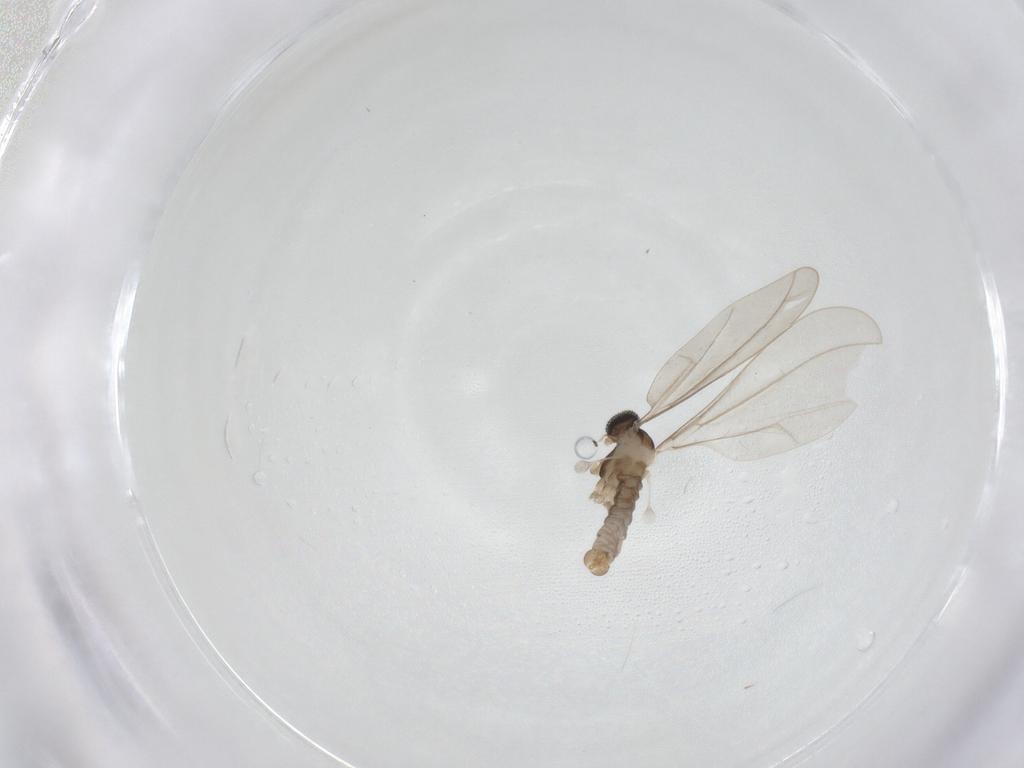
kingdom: Animalia
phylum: Arthropoda
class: Insecta
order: Diptera
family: Cecidomyiidae
